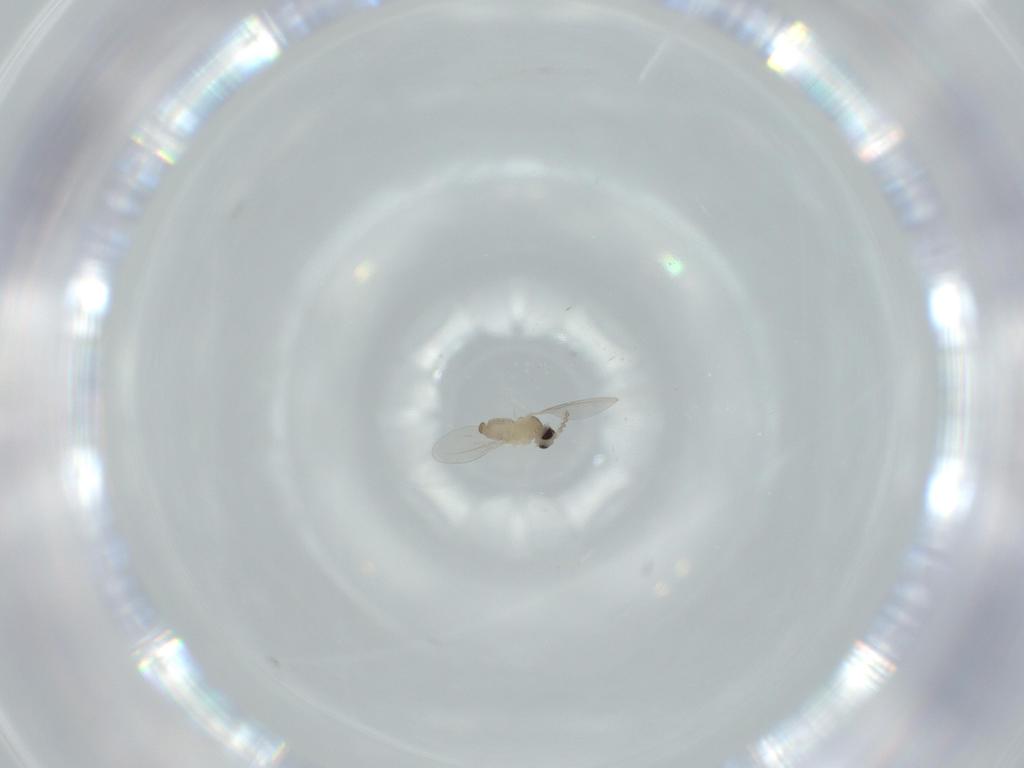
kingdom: Animalia
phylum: Arthropoda
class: Insecta
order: Diptera
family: Cecidomyiidae
